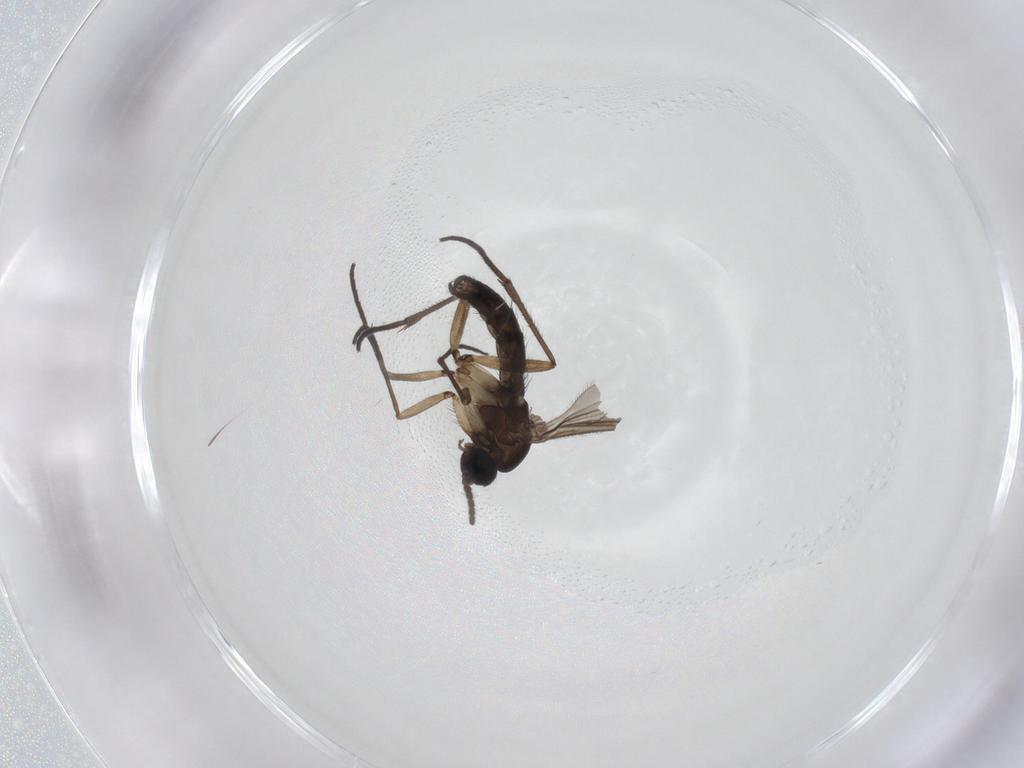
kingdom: Animalia
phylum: Arthropoda
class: Insecta
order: Diptera
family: Sciaridae
